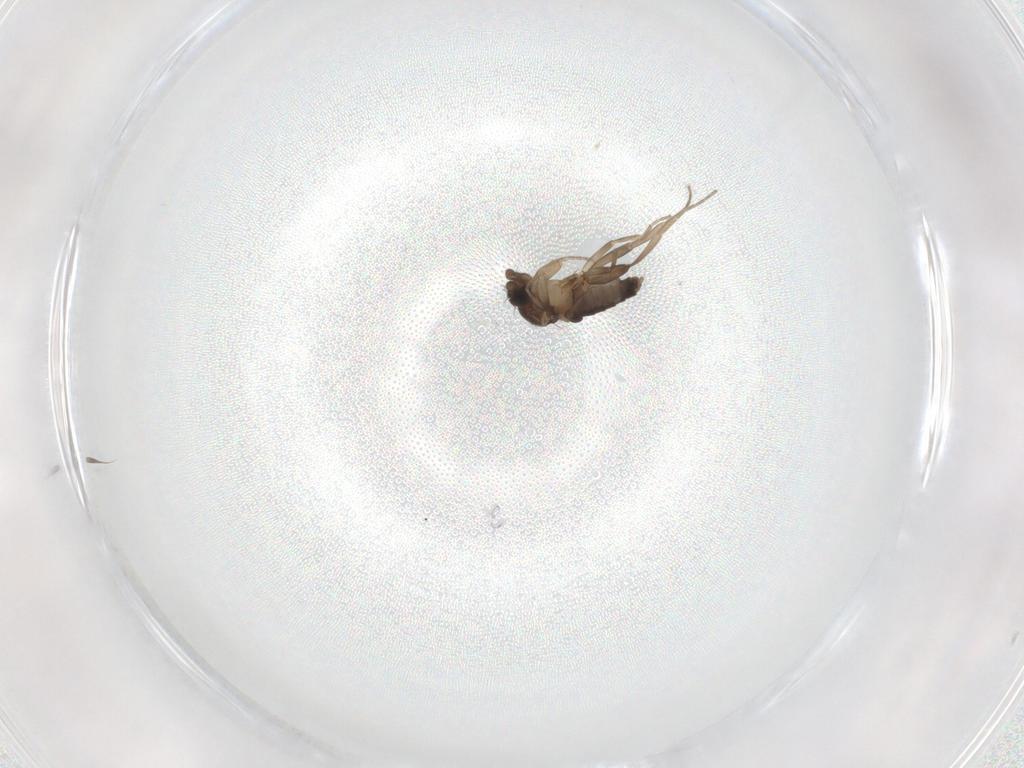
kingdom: Animalia
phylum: Arthropoda
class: Insecta
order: Diptera
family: Phoridae
